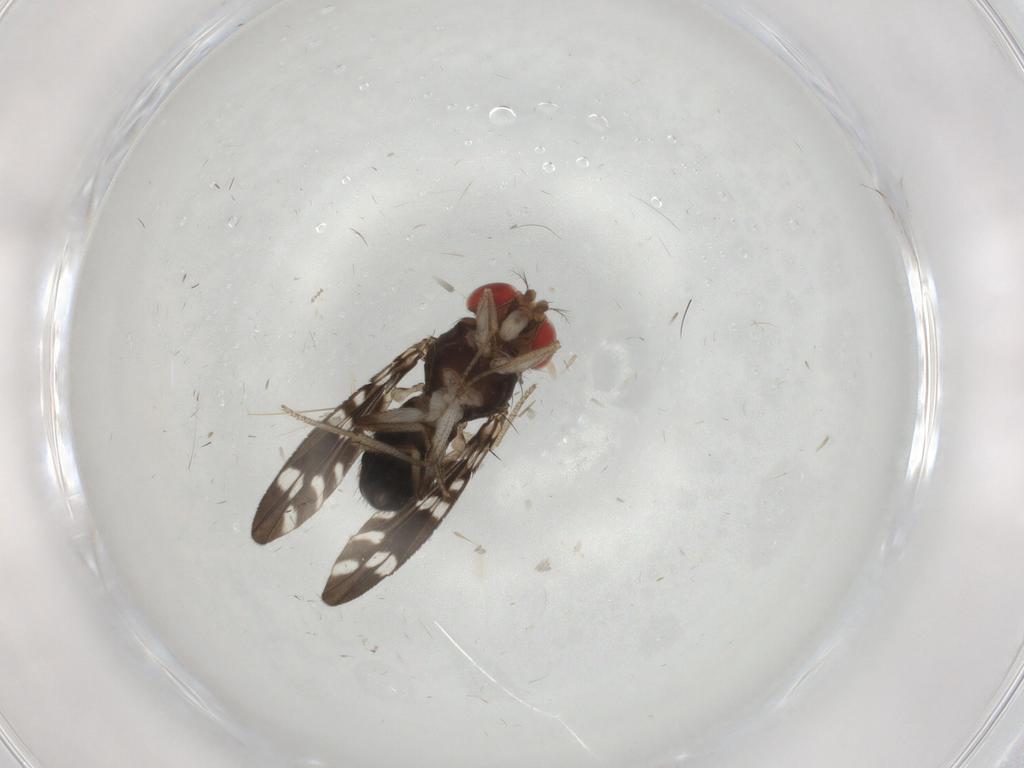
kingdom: Animalia
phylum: Arthropoda
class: Insecta
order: Diptera
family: Drosophilidae
